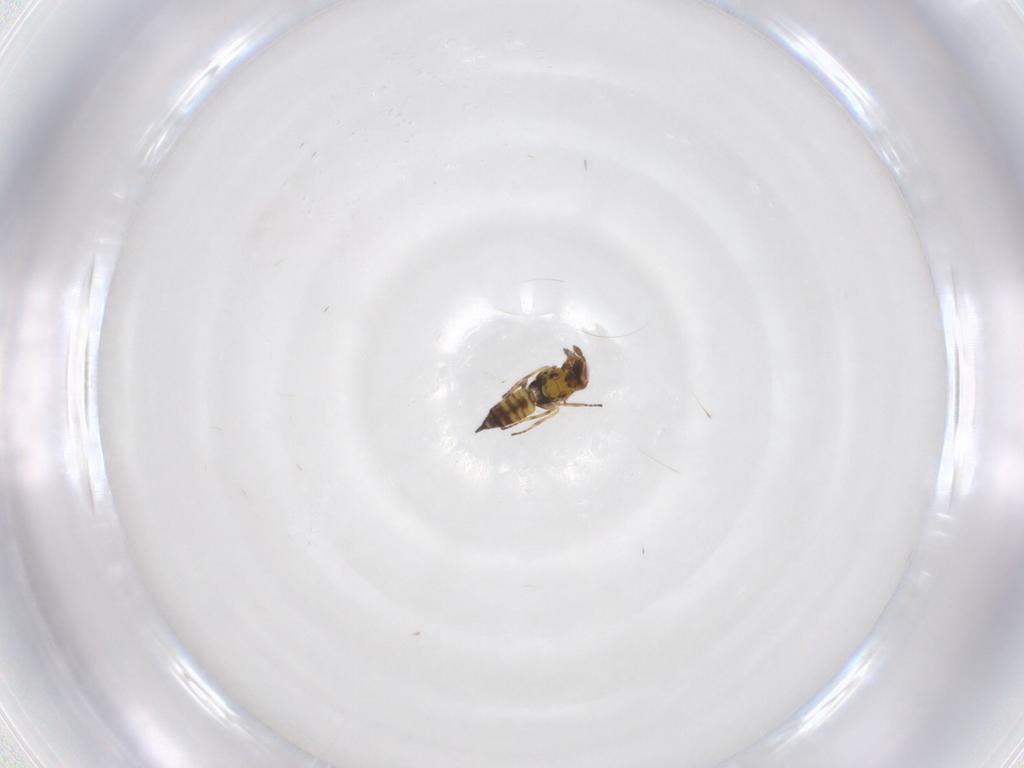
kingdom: Animalia
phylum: Arthropoda
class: Insecta
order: Hymenoptera
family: Eulophidae
